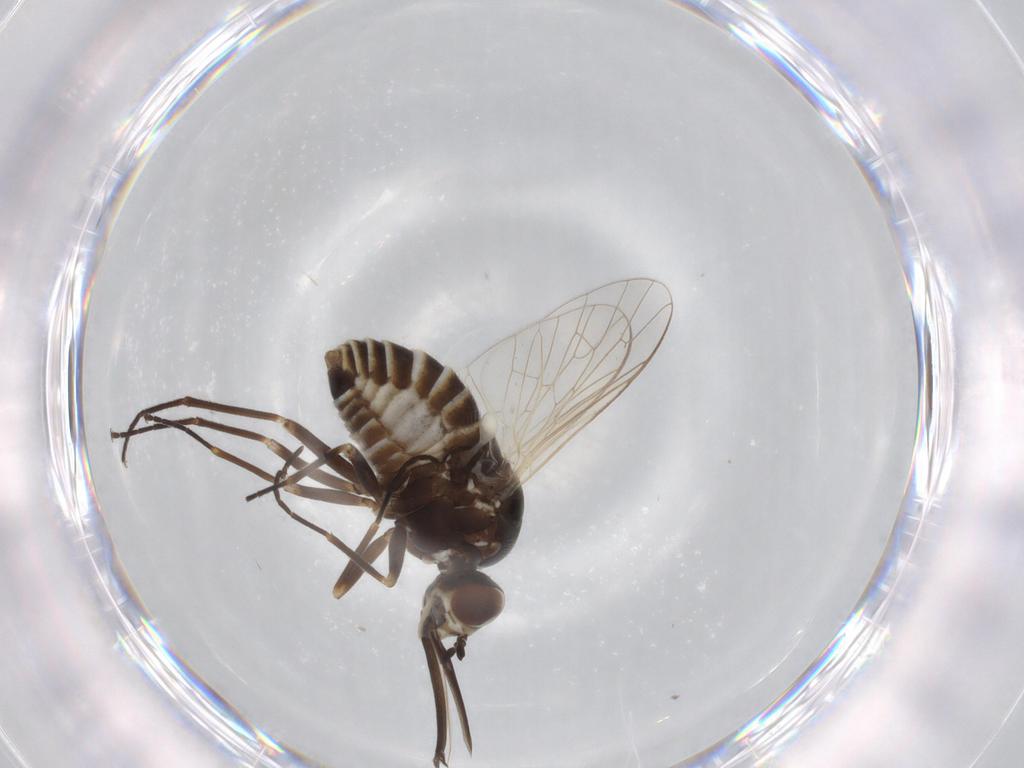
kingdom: Animalia
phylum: Arthropoda
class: Insecta
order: Diptera
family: Bombyliidae
